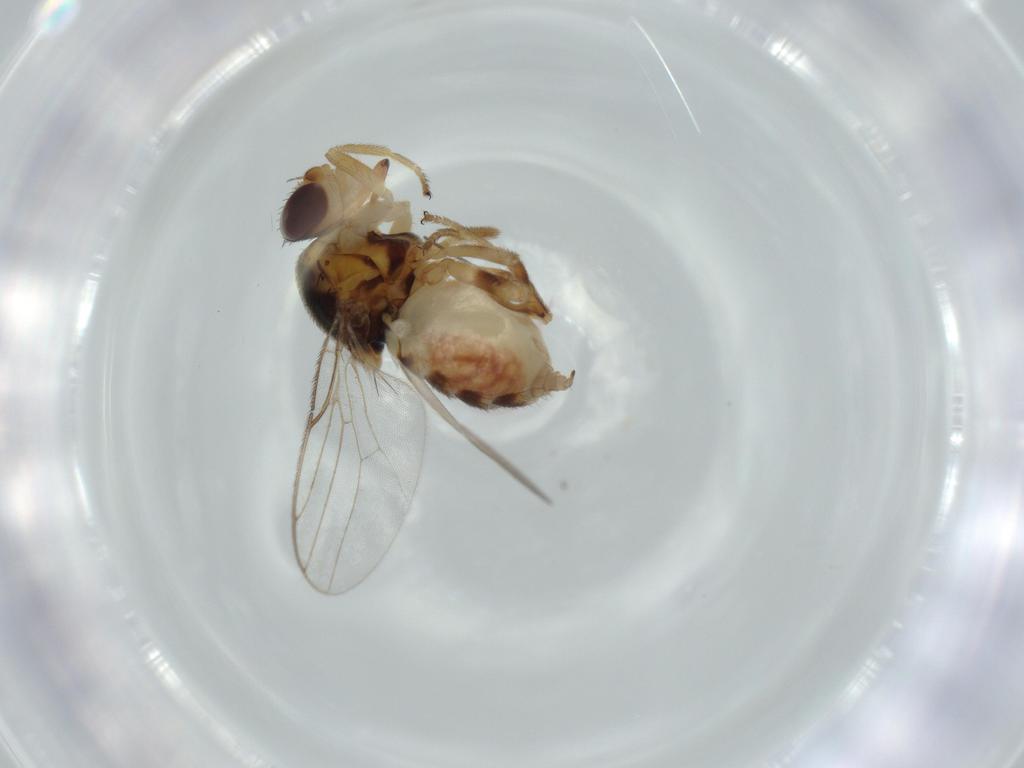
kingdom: Animalia
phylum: Arthropoda
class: Insecta
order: Diptera
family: Chloropidae
